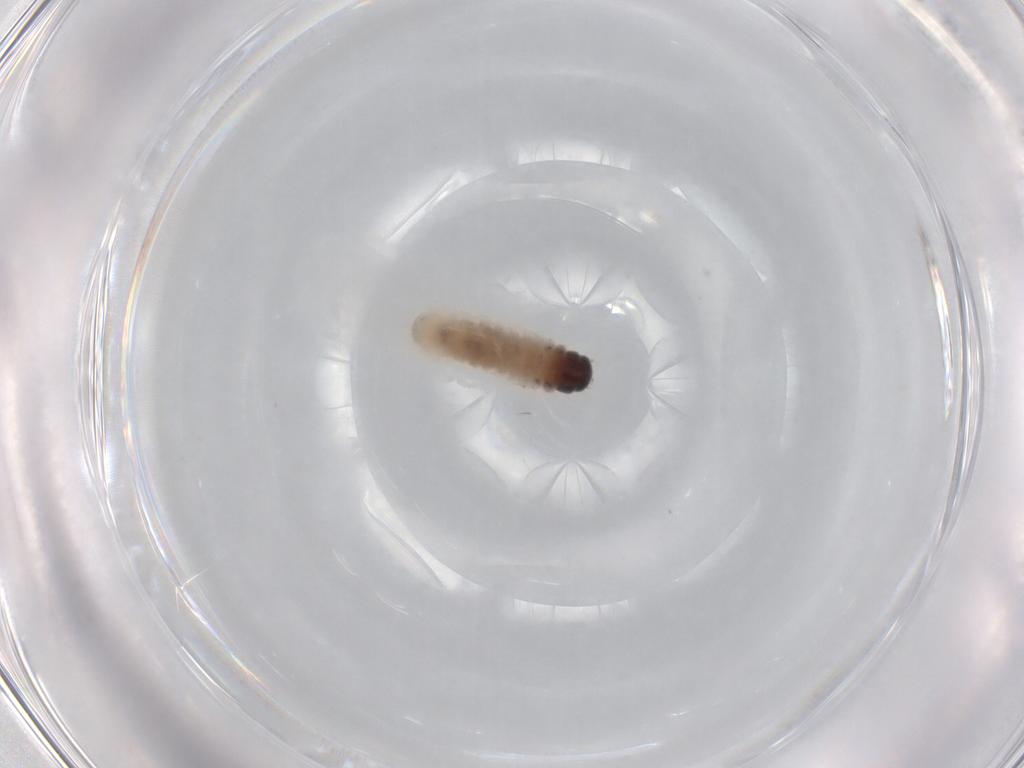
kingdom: Animalia
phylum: Arthropoda
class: Insecta
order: Lepidoptera
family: Psychidae
